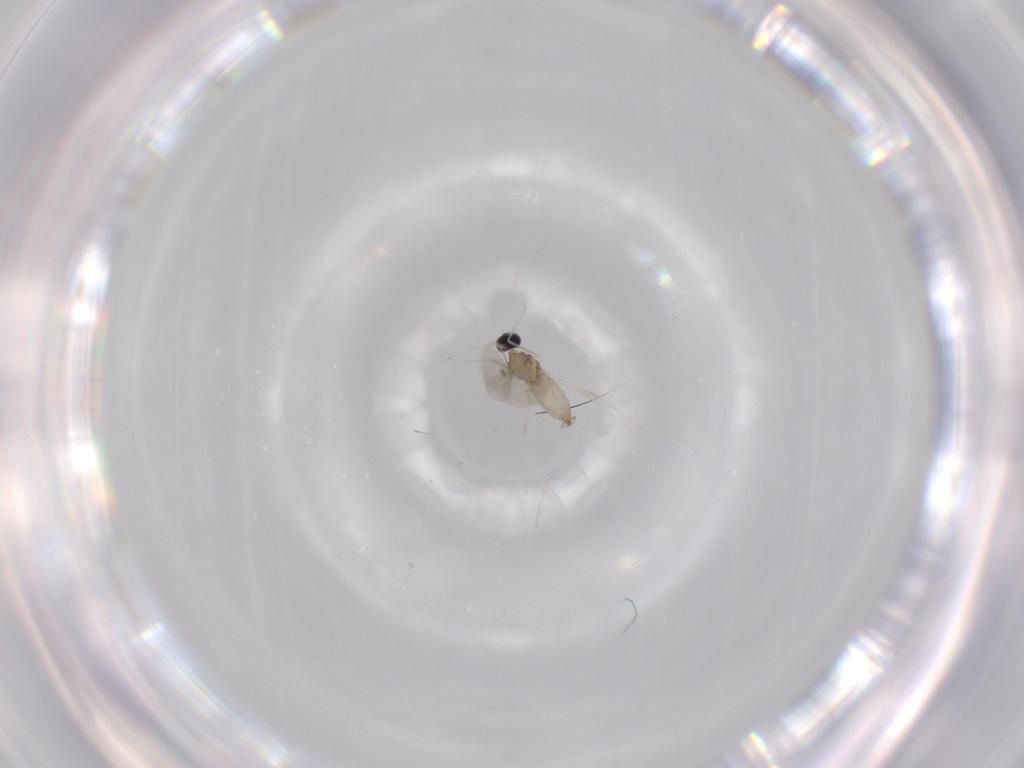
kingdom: Animalia
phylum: Arthropoda
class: Insecta
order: Diptera
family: Cecidomyiidae
